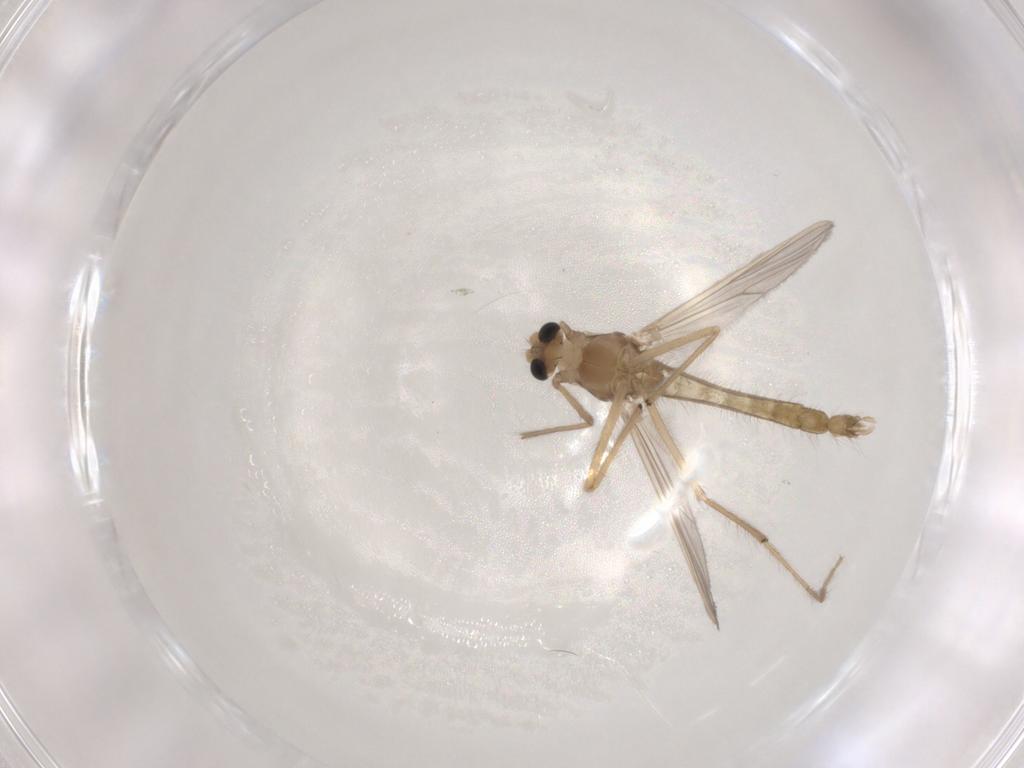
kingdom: Animalia
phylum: Arthropoda
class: Insecta
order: Diptera
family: Chironomidae
